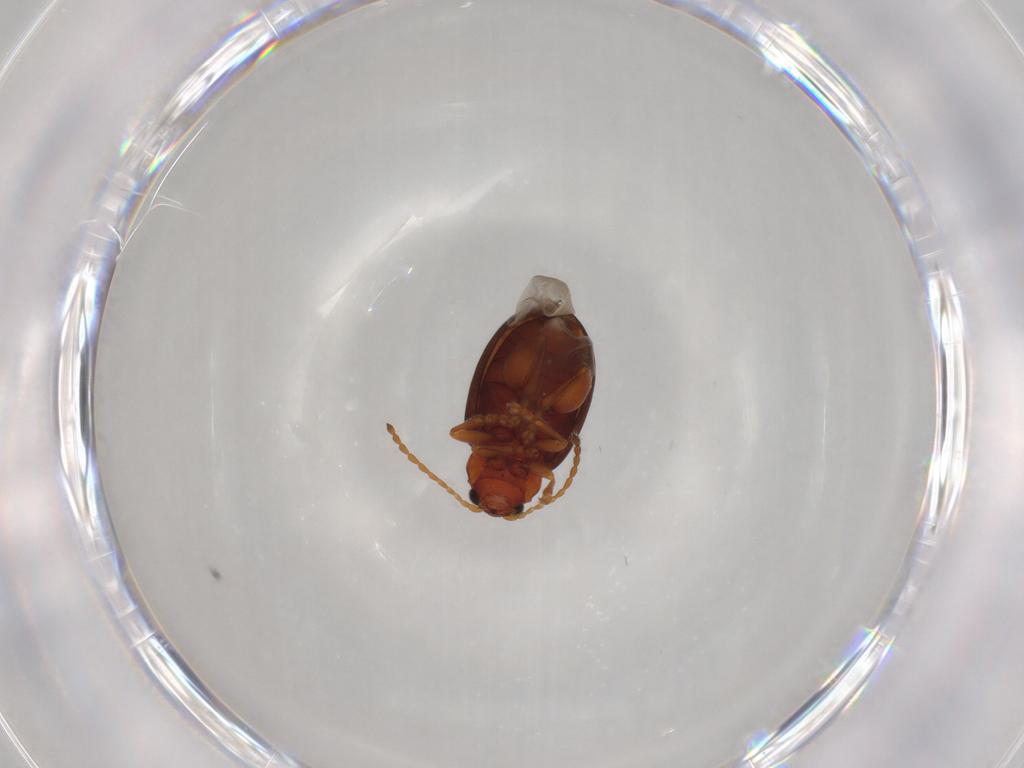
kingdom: Animalia
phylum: Arthropoda
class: Insecta
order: Coleoptera
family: Chrysomelidae
